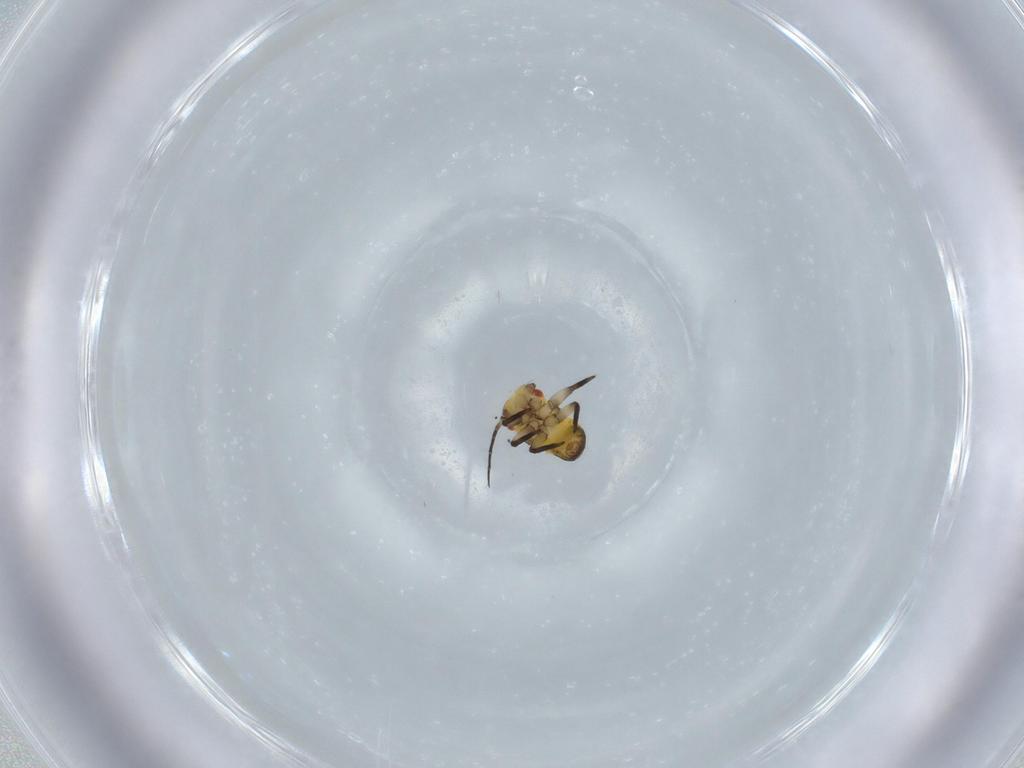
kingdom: Animalia
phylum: Arthropoda
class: Insecta
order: Hemiptera
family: Psyllidae
